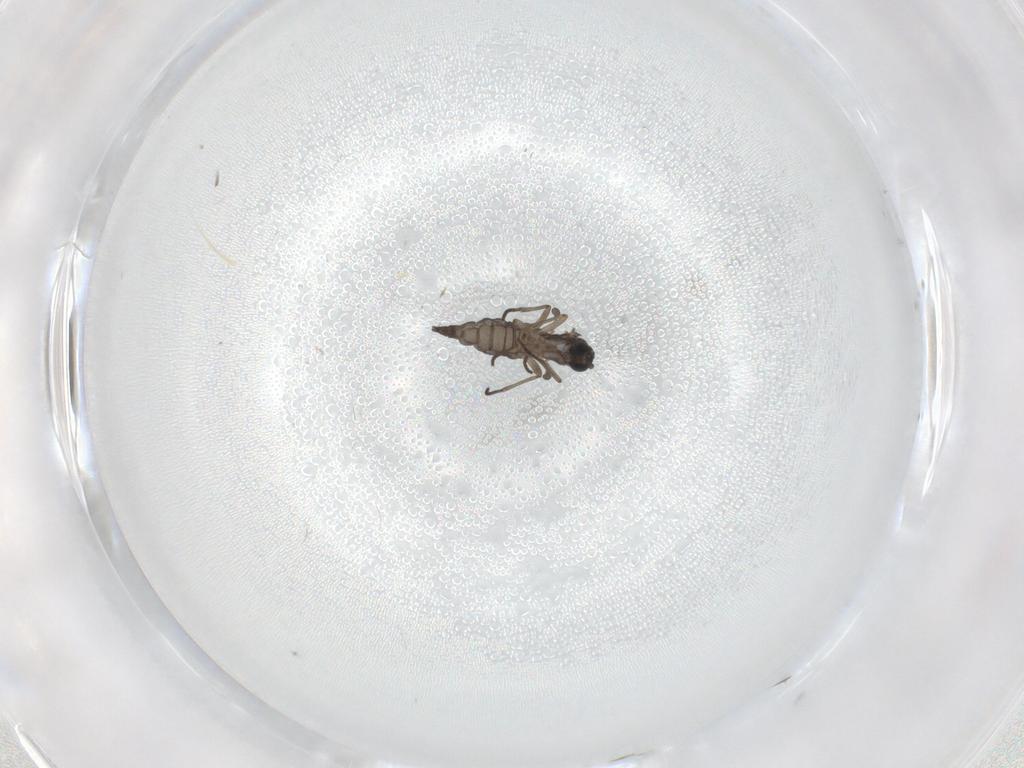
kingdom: Animalia
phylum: Arthropoda
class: Insecta
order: Diptera
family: Sciaridae
